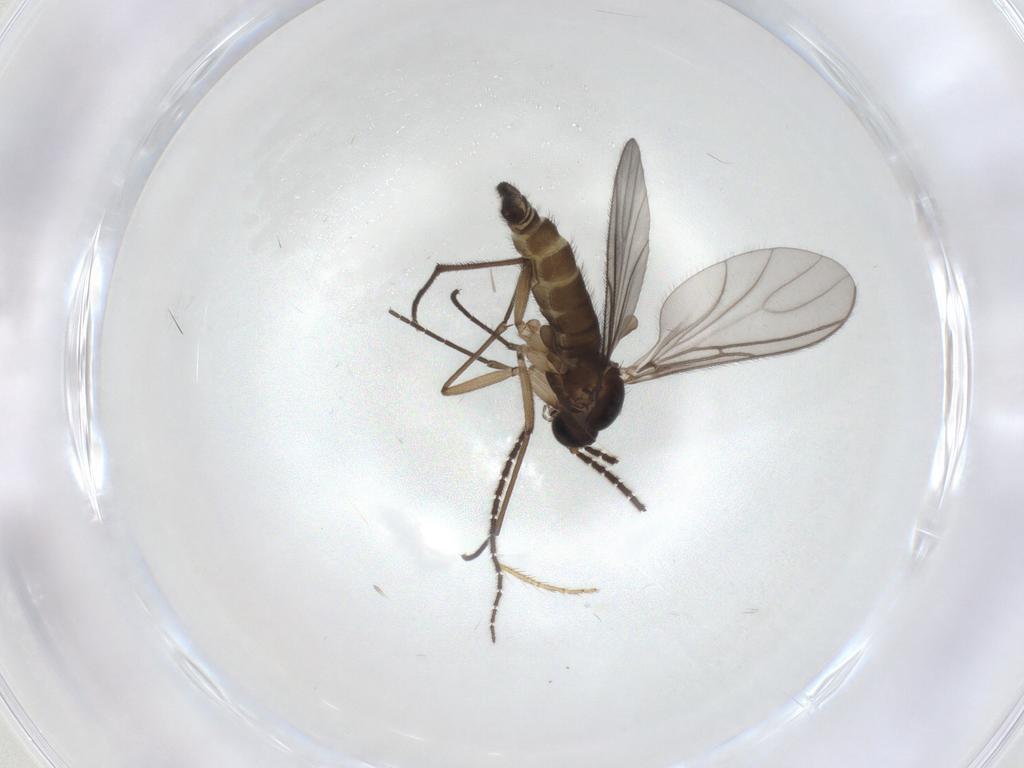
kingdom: Animalia
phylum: Arthropoda
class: Insecta
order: Diptera
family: Sciaridae
